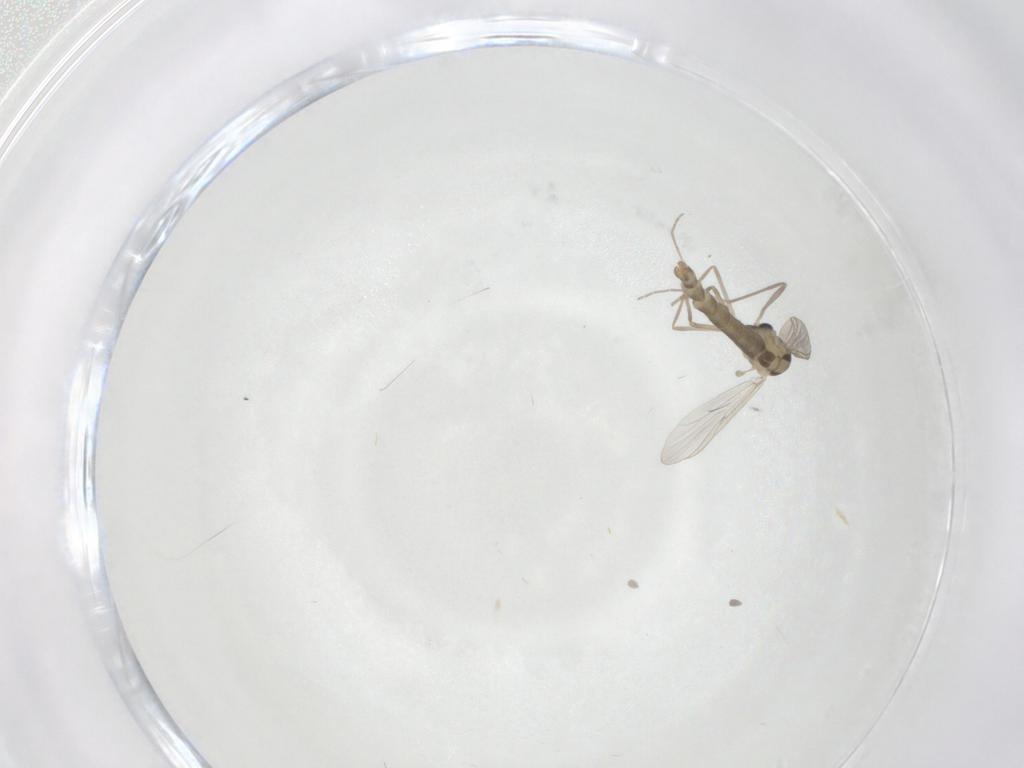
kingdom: Animalia
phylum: Arthropoda
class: Insecta
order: Diptera
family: Chironomidae
